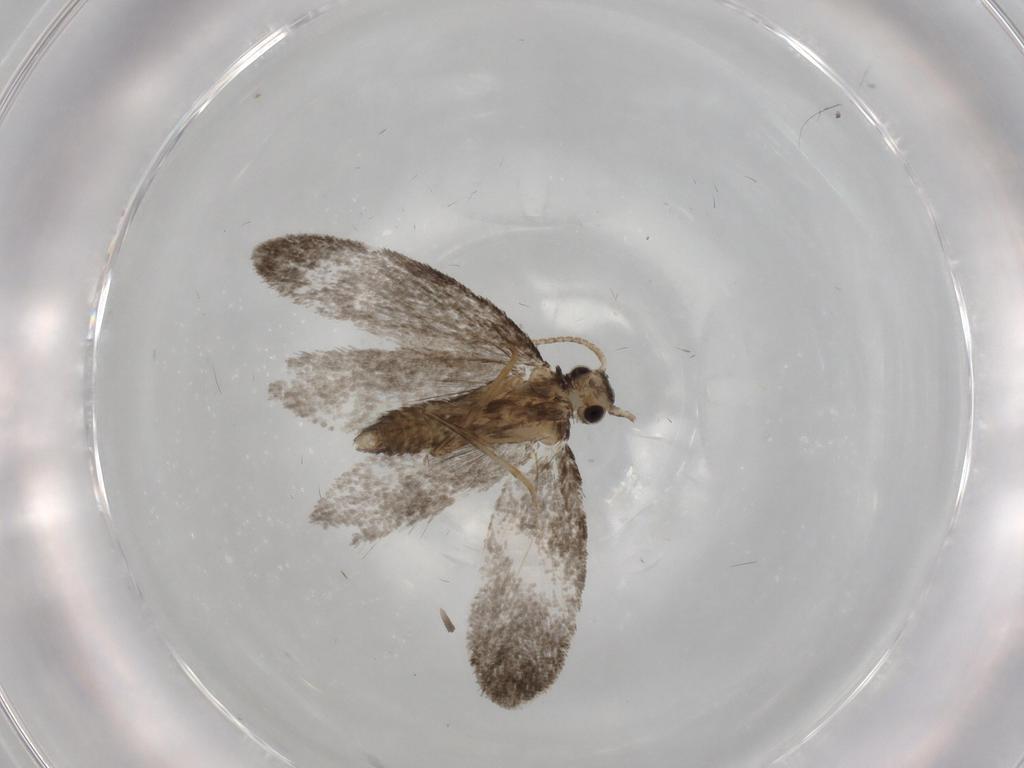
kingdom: Animalia
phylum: Arthropoda
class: Insecta
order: Lepidoptera
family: Psychidae
